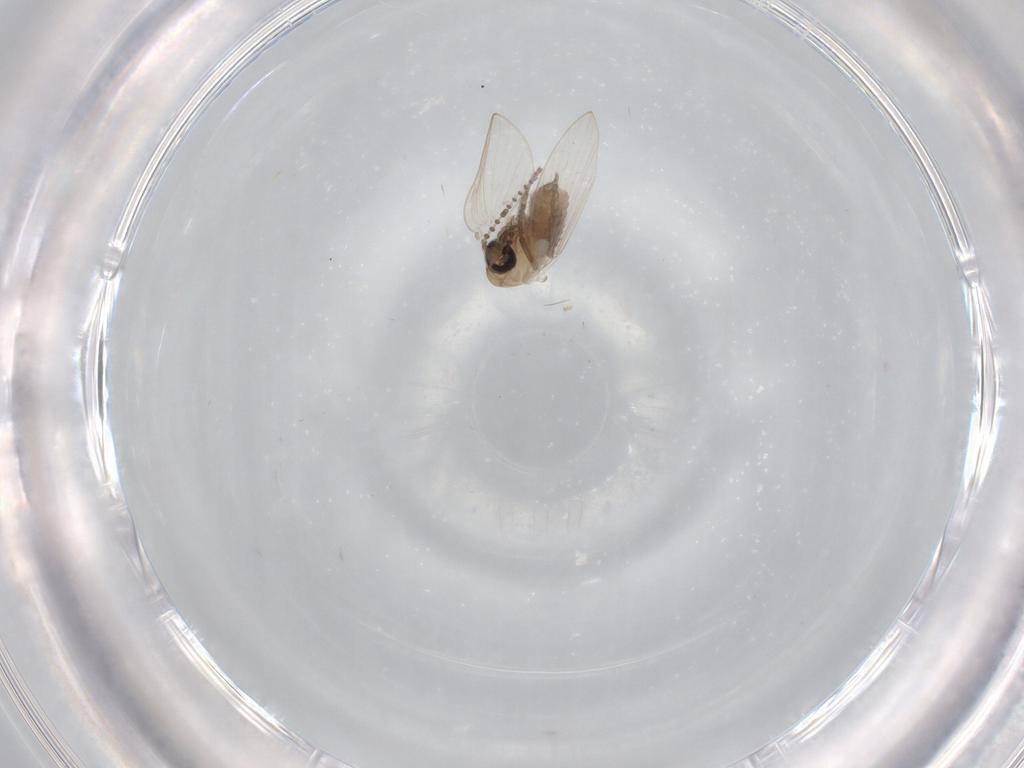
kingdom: Animalia
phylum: Arthropoda
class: Insecta
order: Diptera
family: Psychodidae
